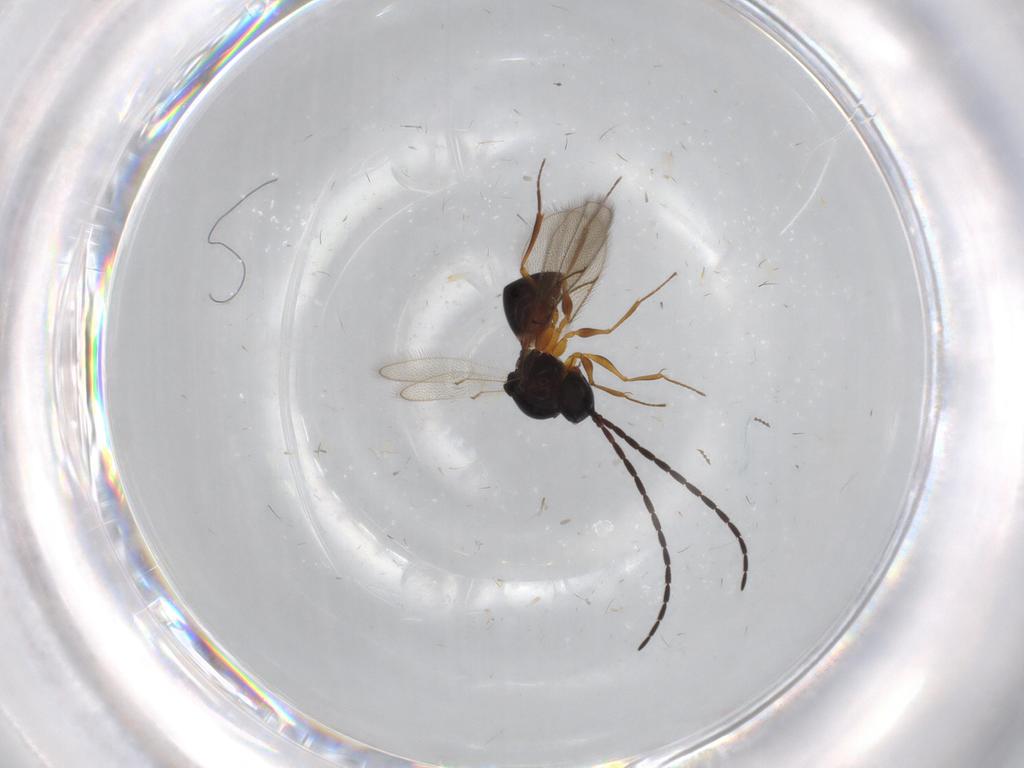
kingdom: Animalia
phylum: Arthropoda
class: Insecta
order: Hymenoptera
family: Figitidae
